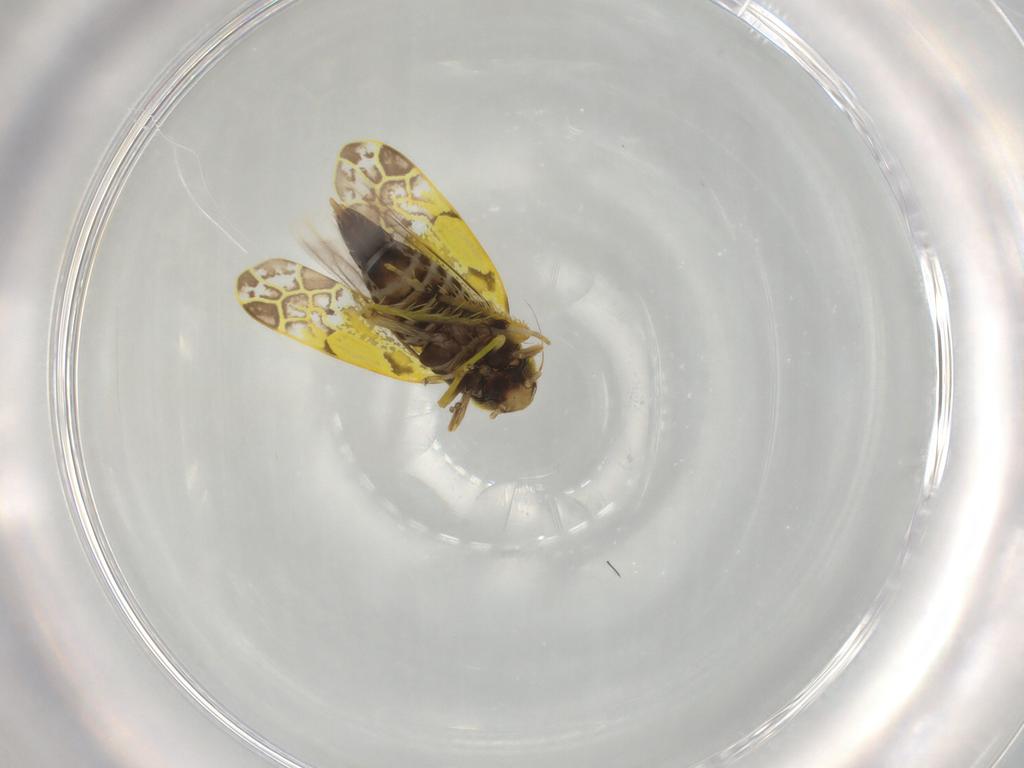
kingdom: Animalia
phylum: Arthropoda
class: Insecta
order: Hemiptera
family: Cicadellidae
